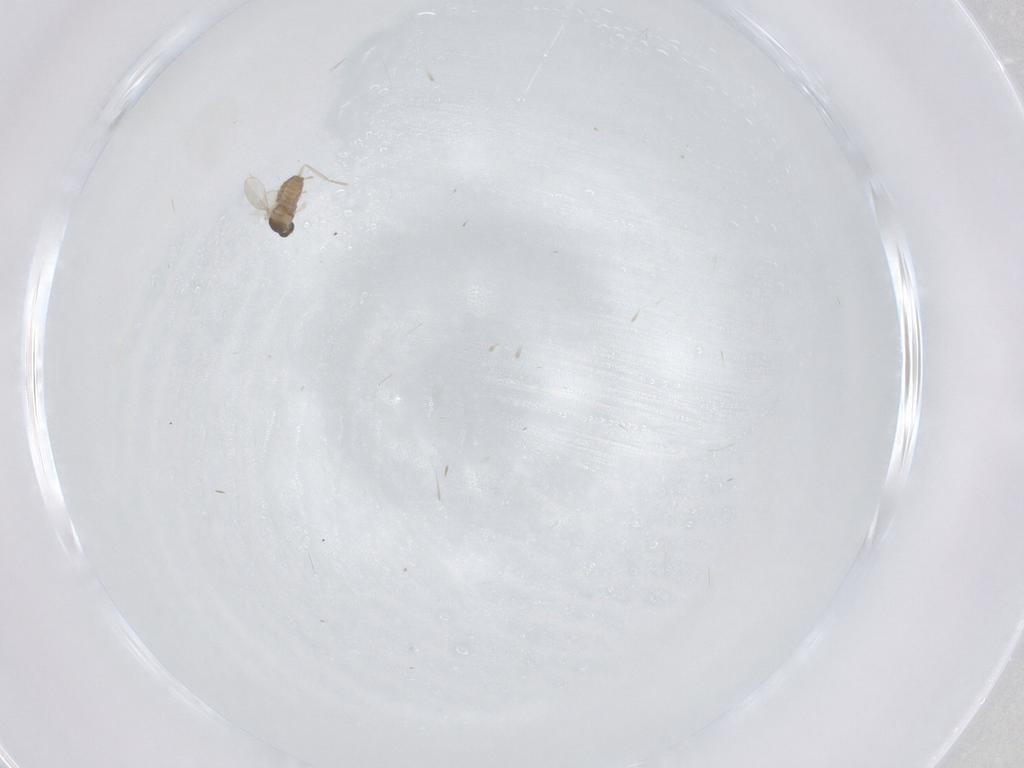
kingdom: Animalia
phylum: Arthropoda
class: Insecta
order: Diptera
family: Cecidomyiidae
